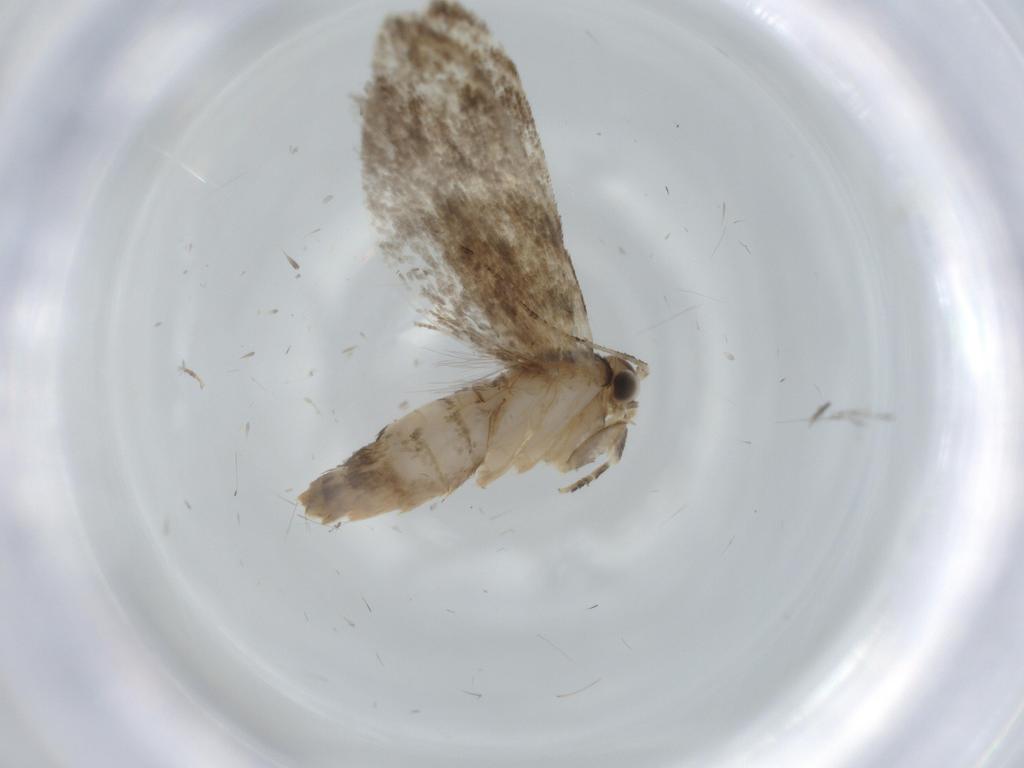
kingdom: Animalia
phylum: Arthropoda
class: Insecta
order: Lepidoptera
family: Tineidae
